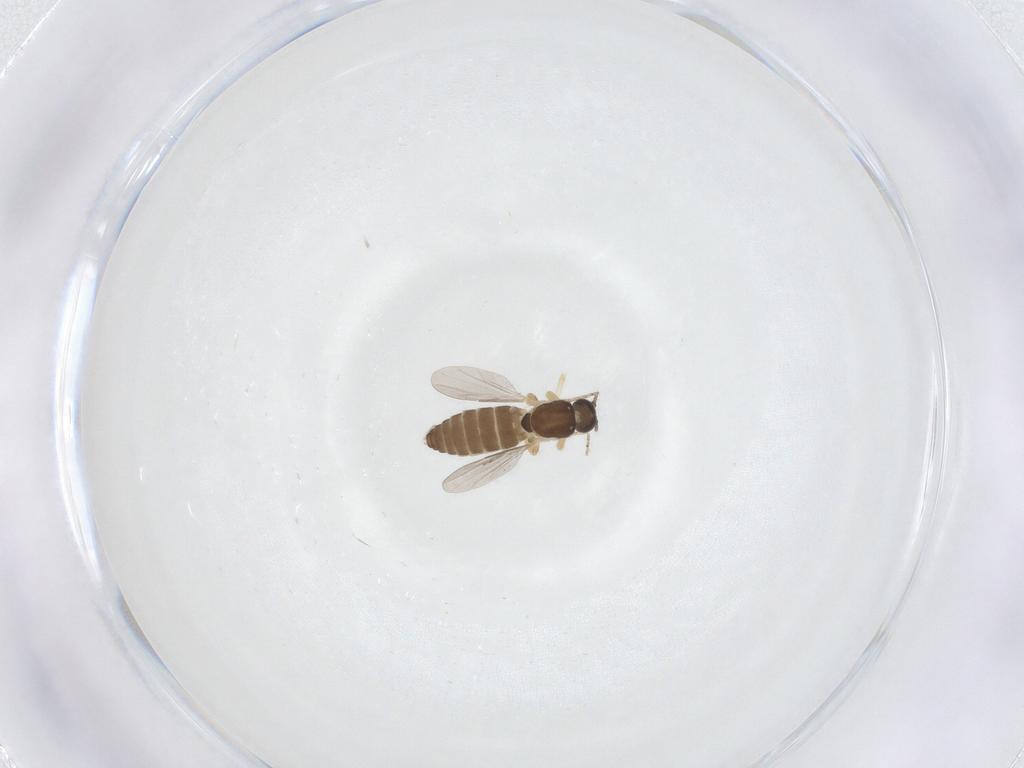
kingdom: Animalia
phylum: Arthropoda
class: Insecta
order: Diptera
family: Ceratopogonidae
